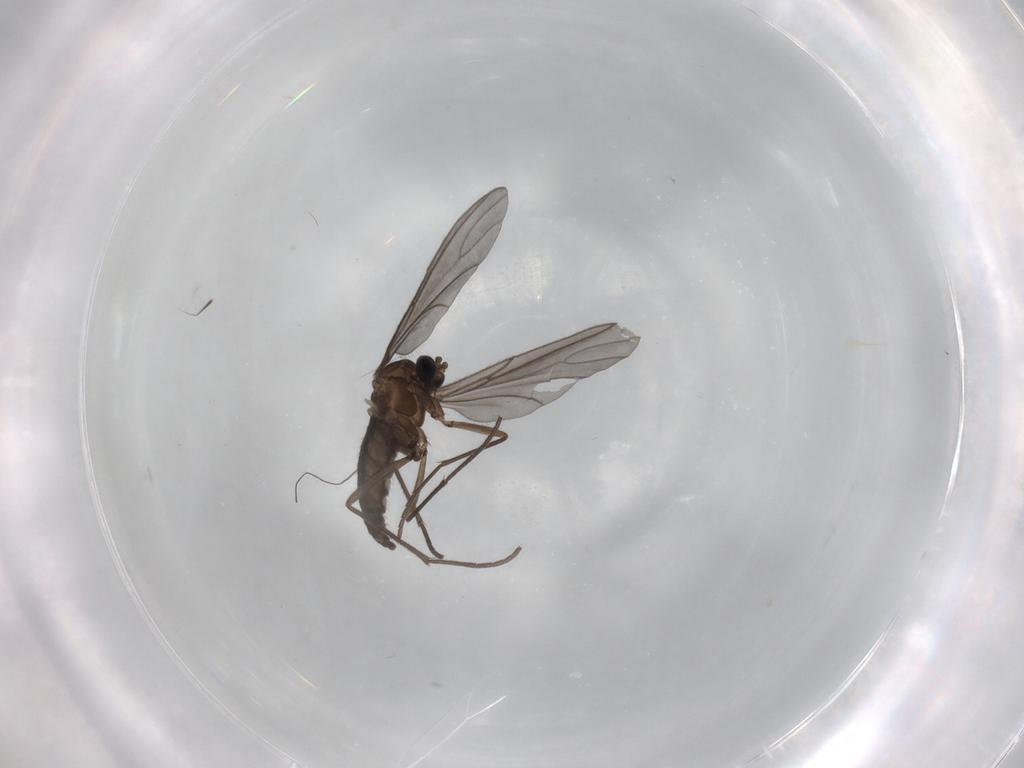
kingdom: Animalia
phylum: Arthropoda
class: Insecta
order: Diptera
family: Sciaridae
